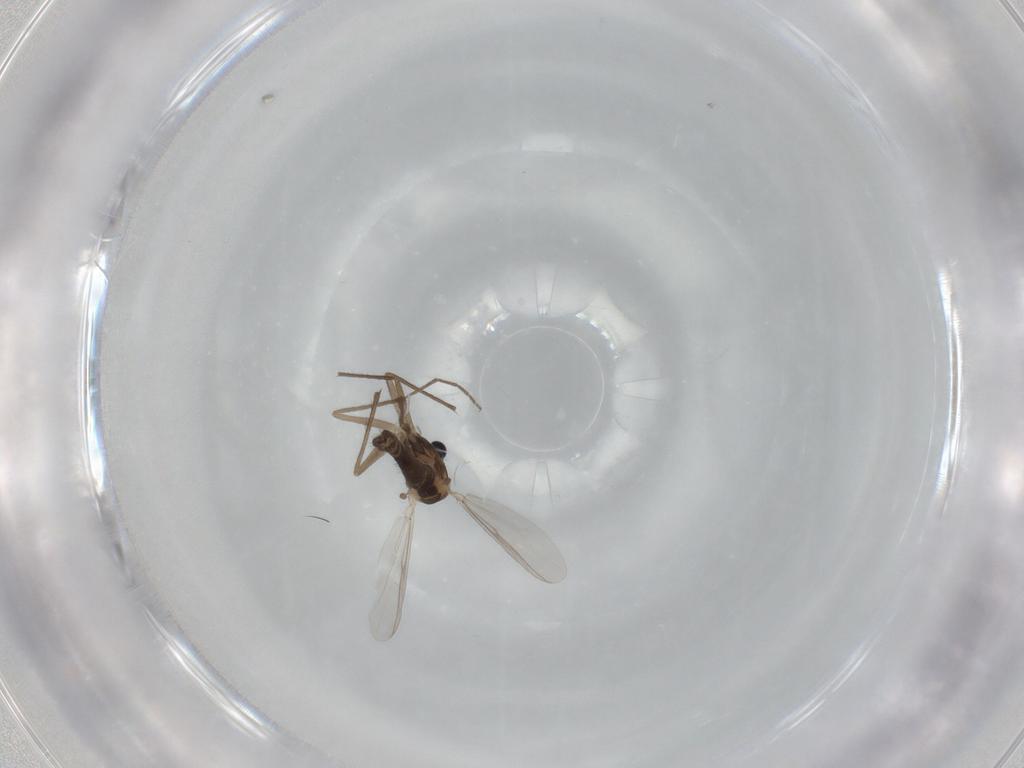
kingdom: Animalia
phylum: Arthropoda
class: Insecta
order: Diptera
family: Chironomidae
